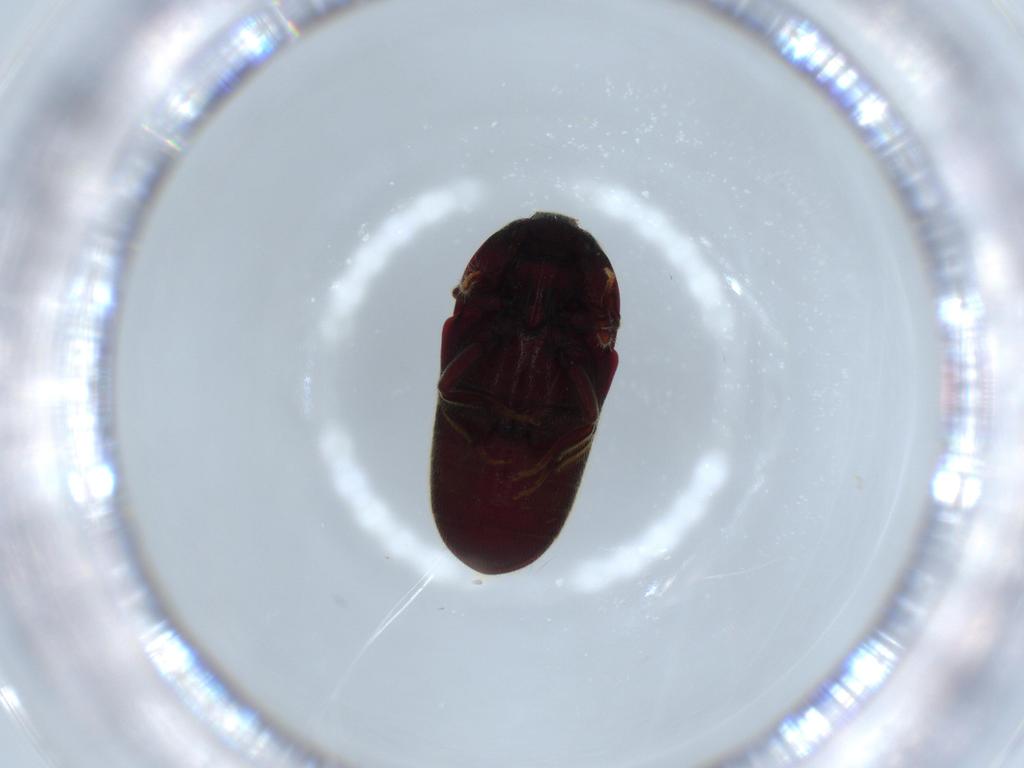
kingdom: Animalia
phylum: Arthropoda
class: Insecta
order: Coleoptera
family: Throscidae
